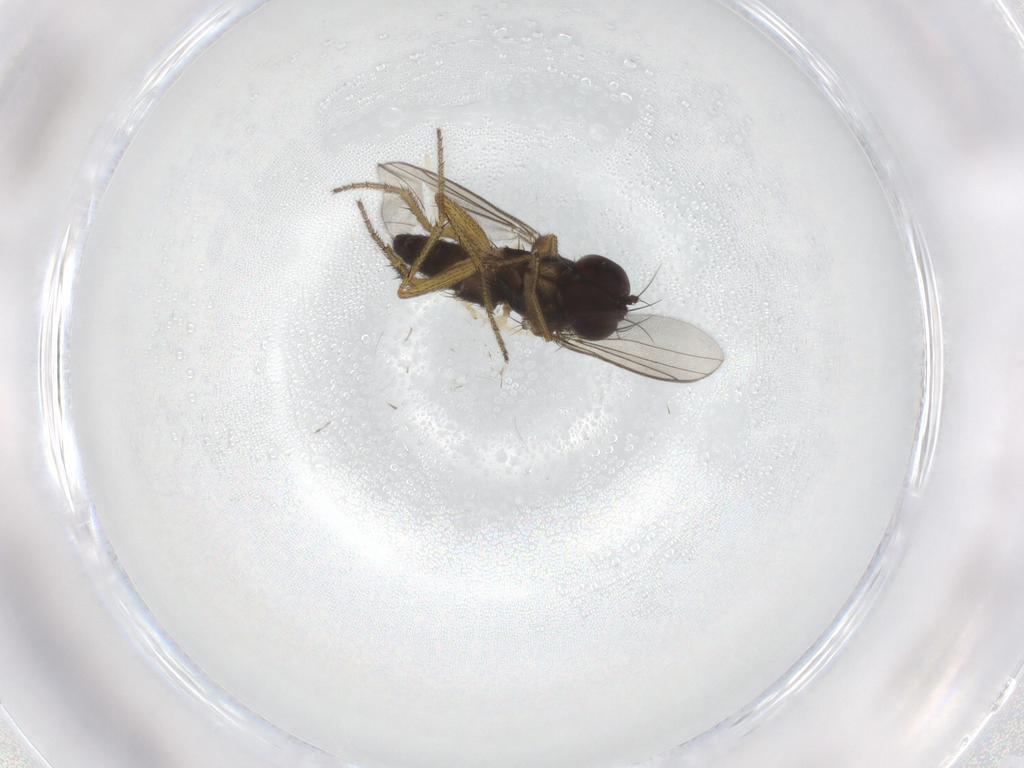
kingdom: Animalia
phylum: Arthropoda
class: Insecta
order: Diptera
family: Dolichopodidae
